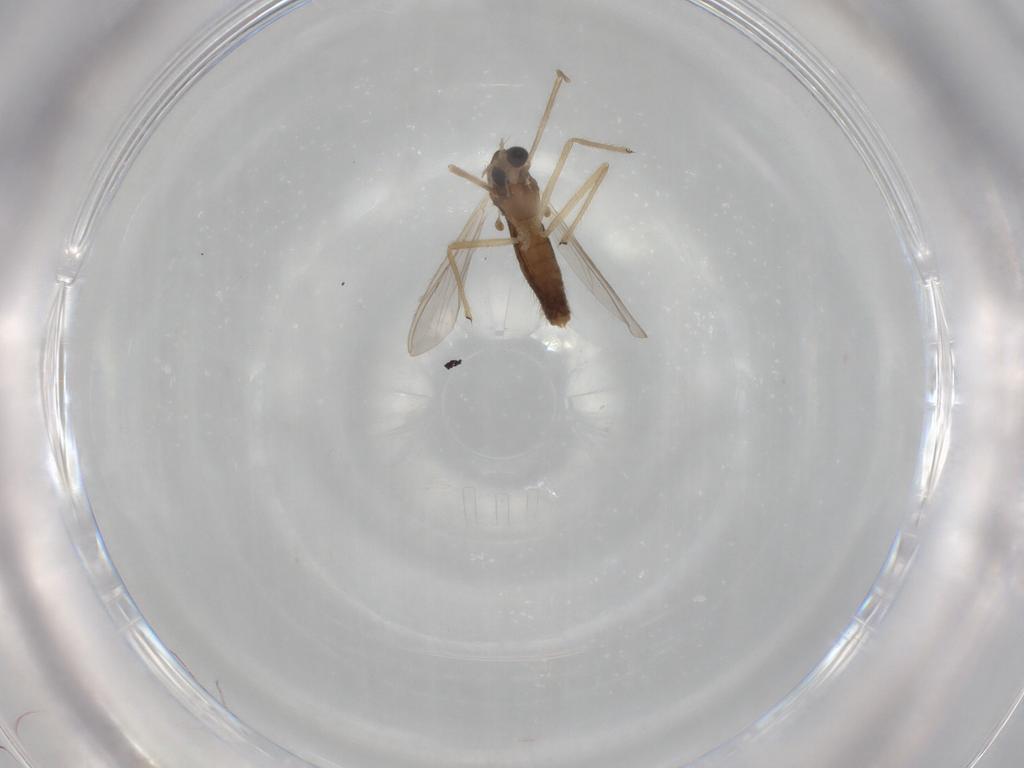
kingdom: Animalia
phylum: Arthropoda
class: Insecta
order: Diptera
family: Chironomidae
